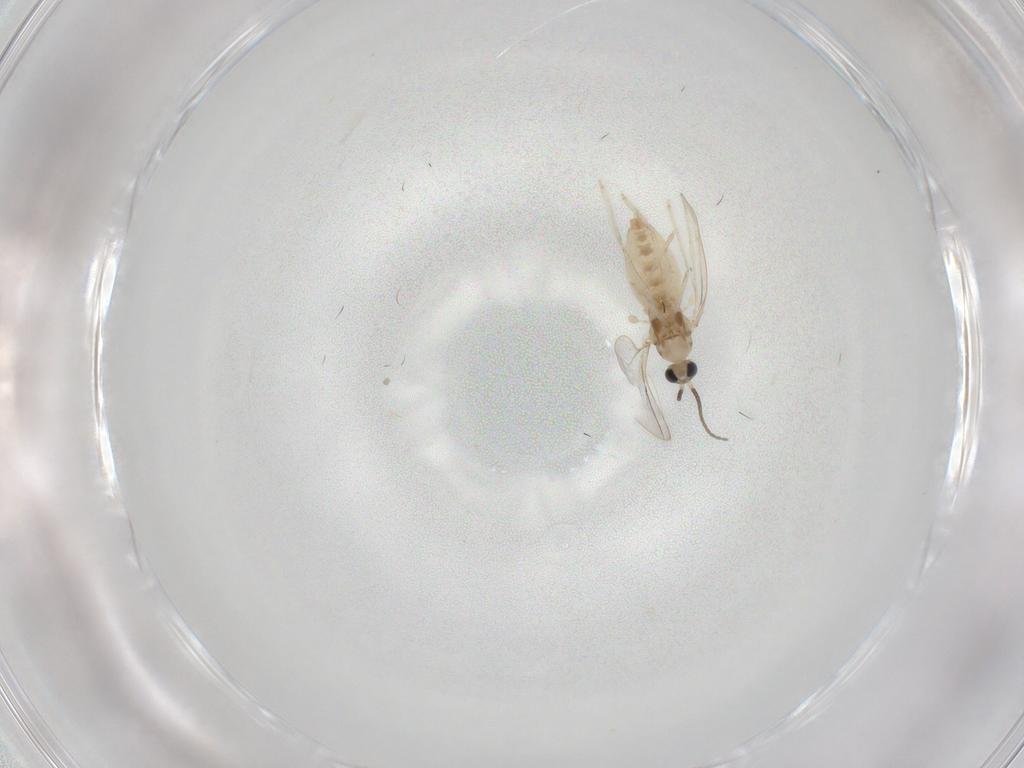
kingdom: Animalia
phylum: Arthropoda
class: Insecta
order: Diptera
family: Cecidomyiidae
